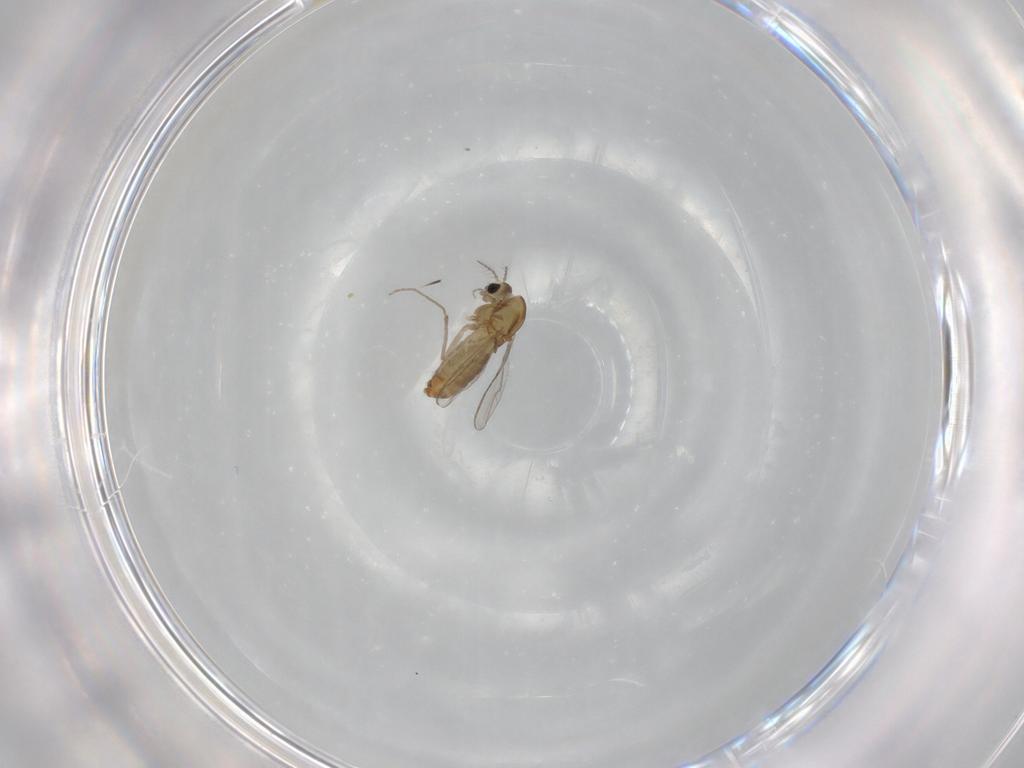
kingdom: Animalia
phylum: Arthropoda
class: Insecta
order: Diptera
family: Chironomidae
